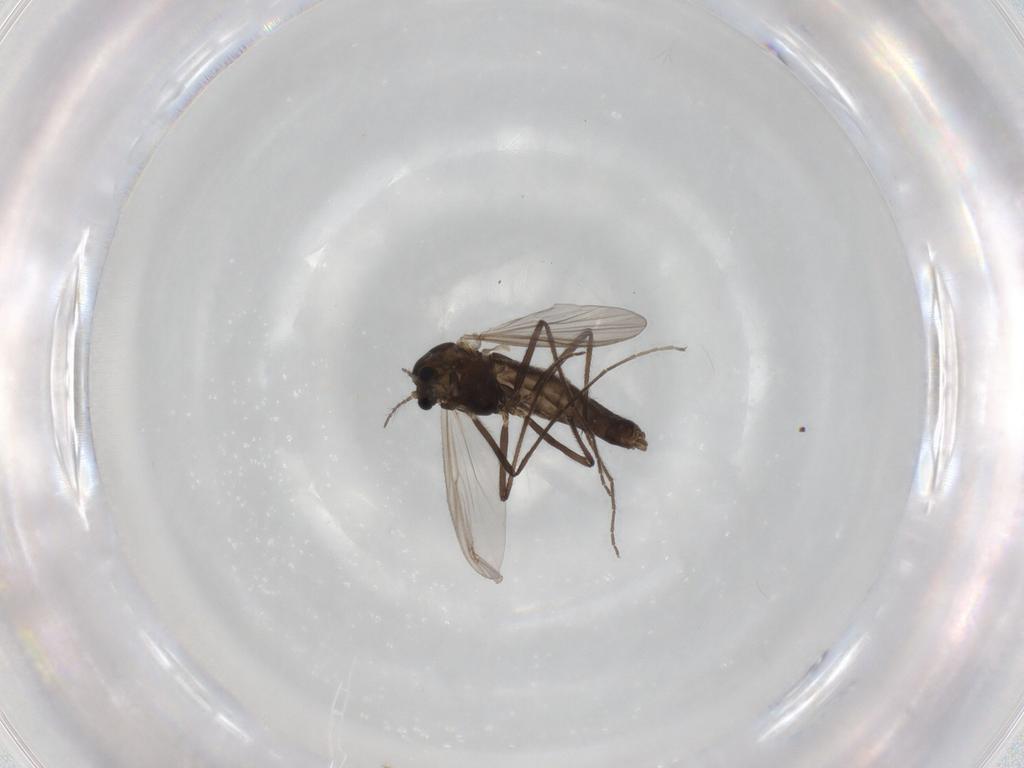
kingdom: Animalia
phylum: Arthropoda
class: Insecta
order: Diptera
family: Chironomidae
